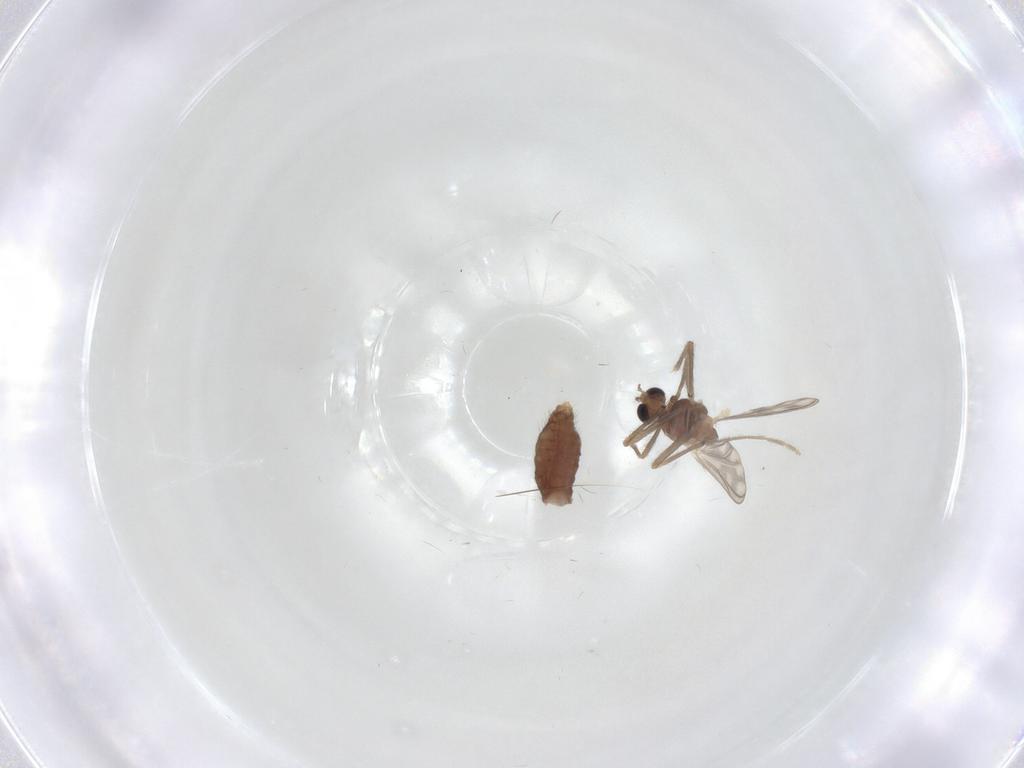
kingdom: Animalia
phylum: Arthropoda
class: Insecta
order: Diptera
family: Chironomidae
